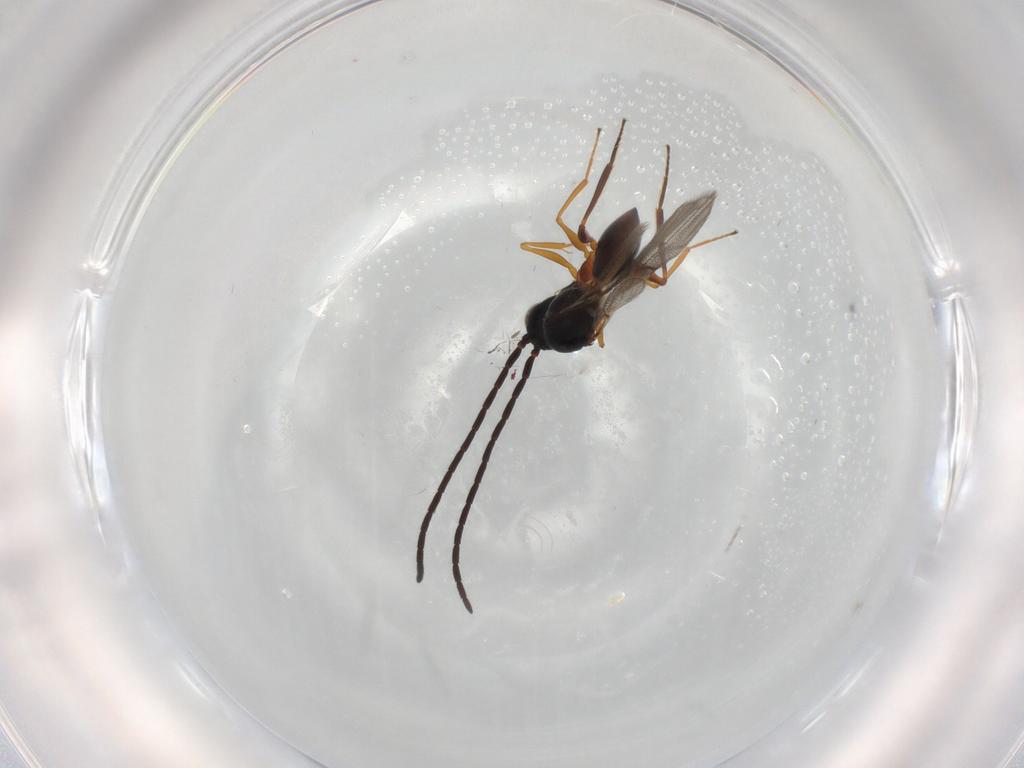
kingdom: Animalia
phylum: Arthropoda
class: Insecta
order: Hymenoptera
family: Figitidae
